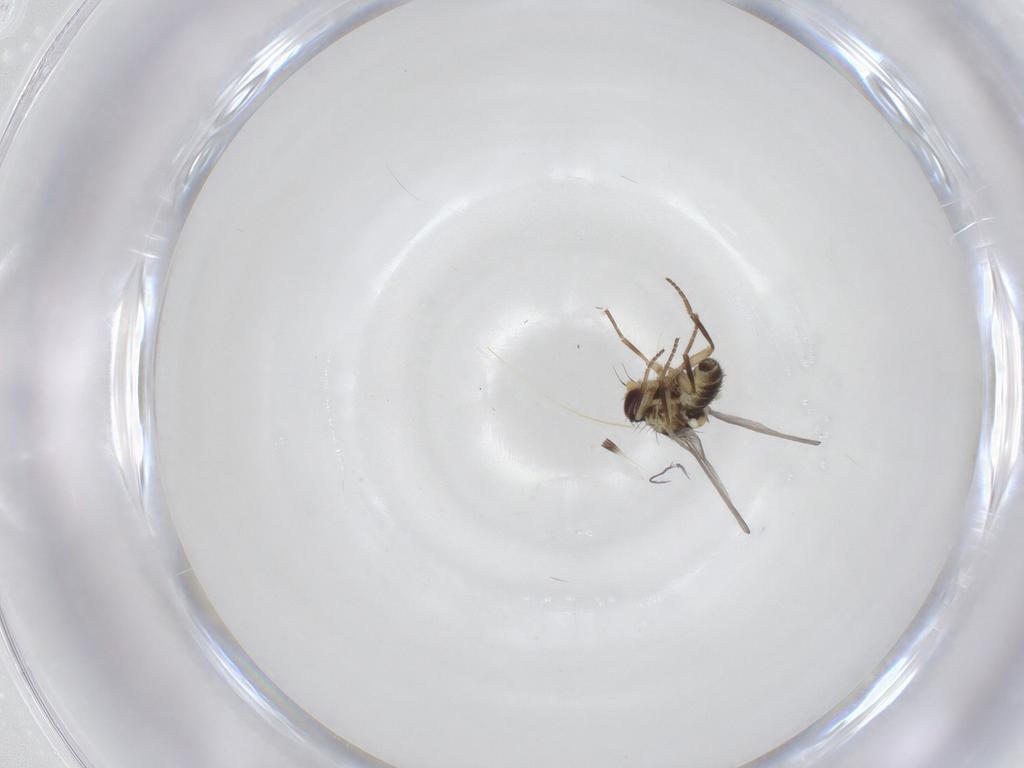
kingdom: Animalia
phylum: Arthropoda
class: Insecta
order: Diptera
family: Agromyzidae
